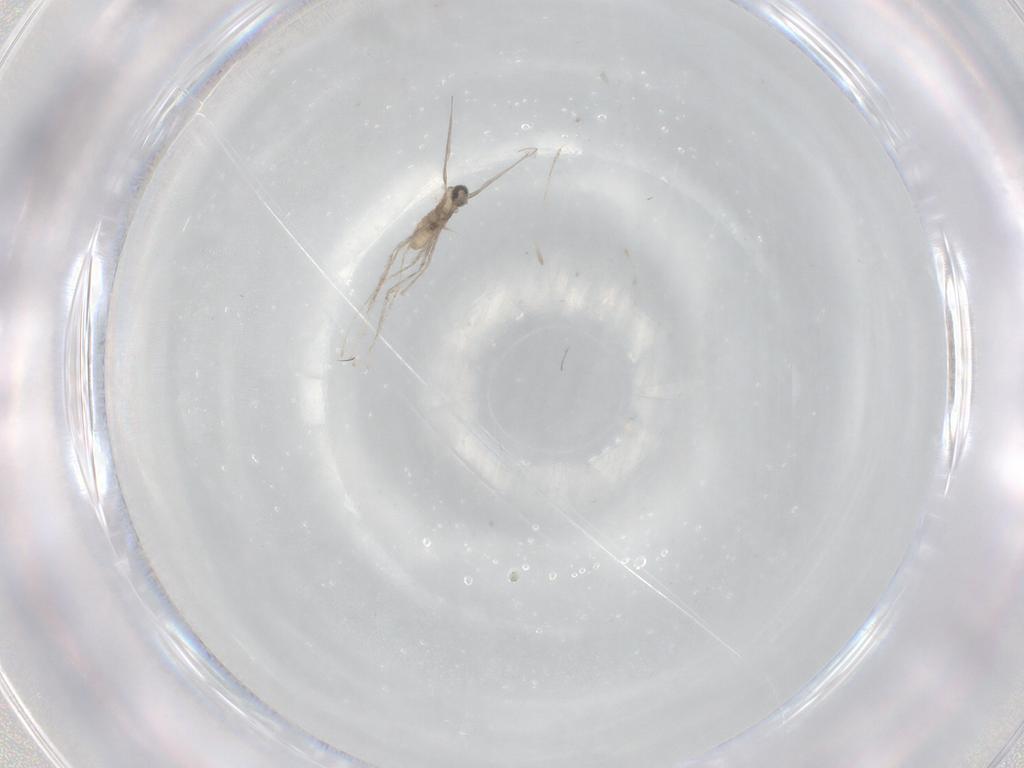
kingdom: Animalia
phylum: Arthropoda
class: Insecta
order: Diptera
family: Cecidomyiidae
